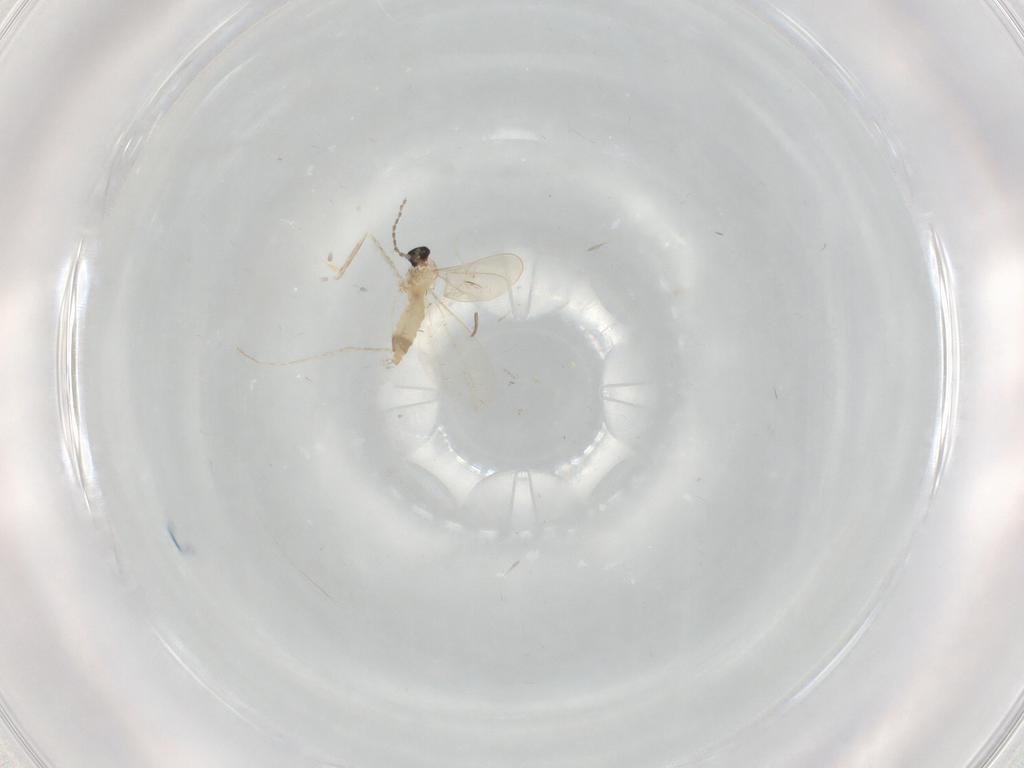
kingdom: Animalia
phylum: Arthropoda
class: Insecta
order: Diptera
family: Cecidomyiidae
